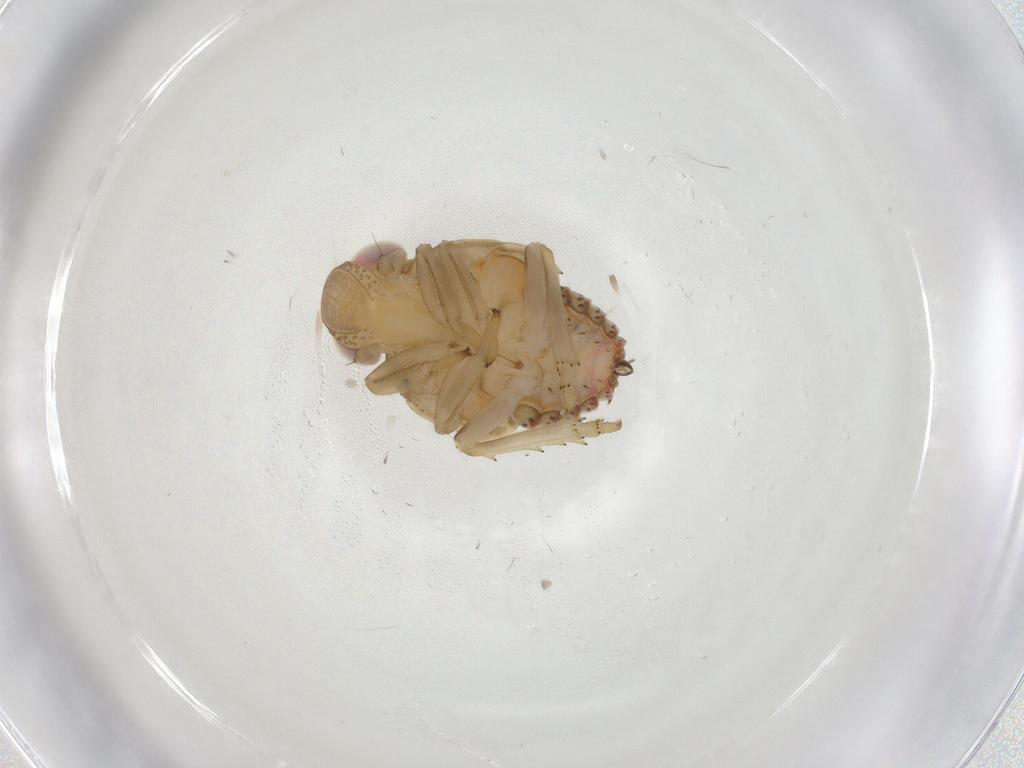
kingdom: Animalia
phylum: Arthropoda
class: Insecta
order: Hemiptera
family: Issidae
